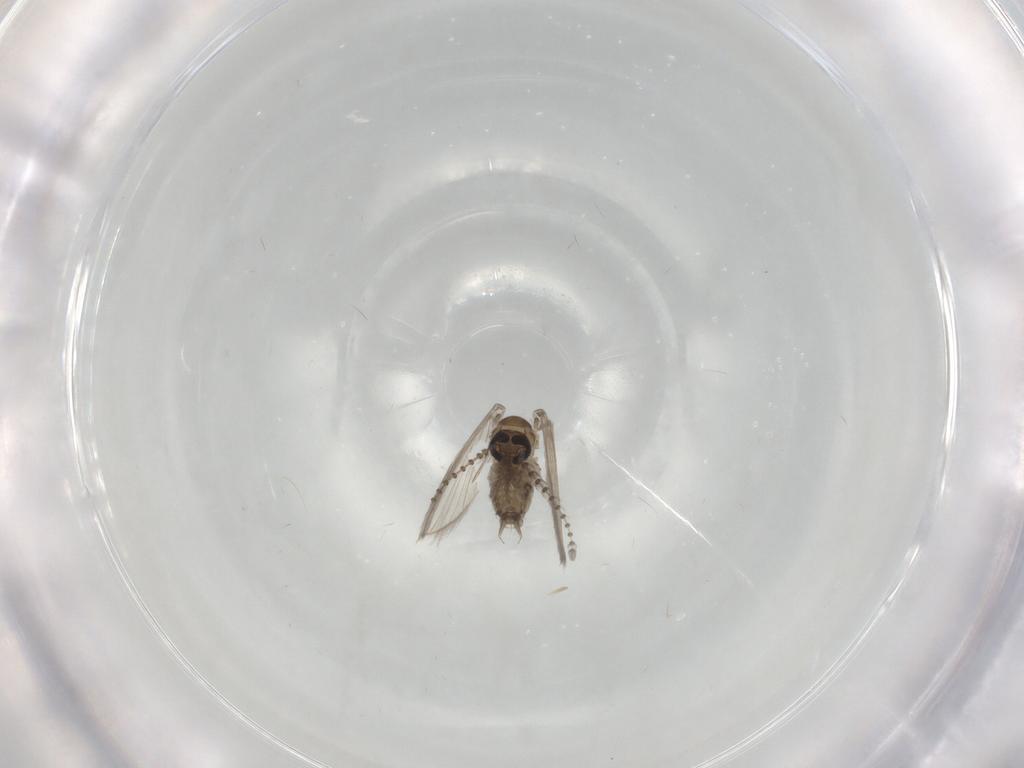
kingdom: Animalia
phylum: Arthropoda
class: Insecta
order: Diptera
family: Psychodidae
